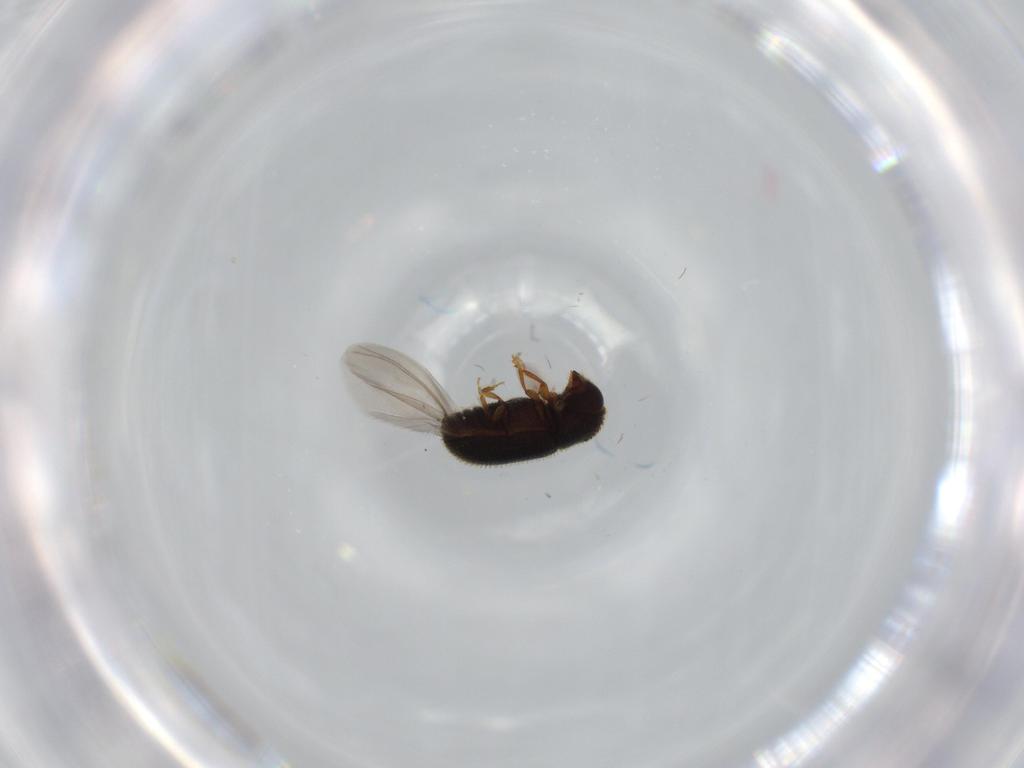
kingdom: Animalia
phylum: Arthropoda
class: Insecta
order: Coleoptera
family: Curculionidae
